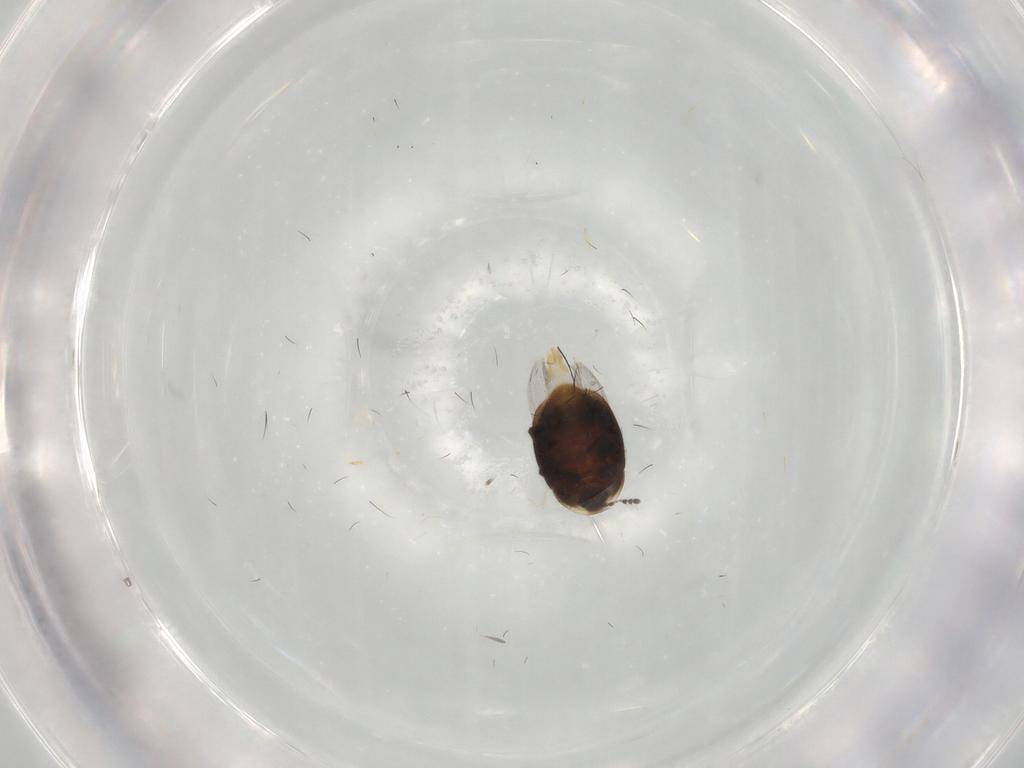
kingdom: Animalia
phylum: Arthropoda
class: Insecta
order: Coleoptera
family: Corylophidae
